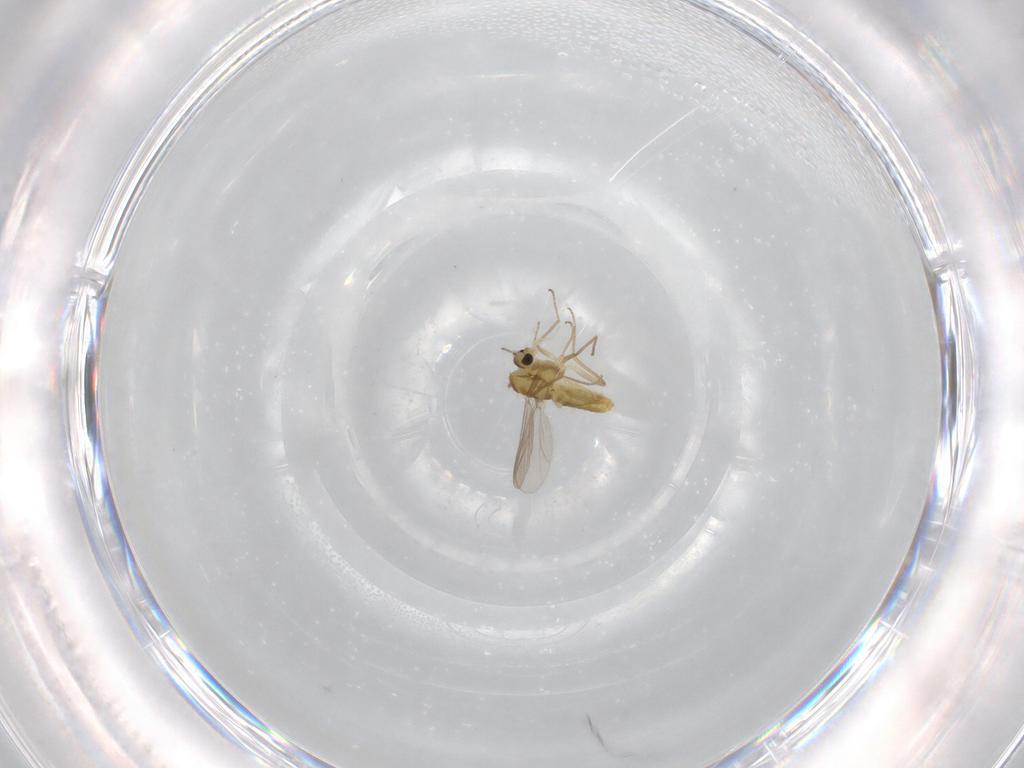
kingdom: Animalia
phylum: Arthropoda
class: Insecta
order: Diptera
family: Chironomidae
